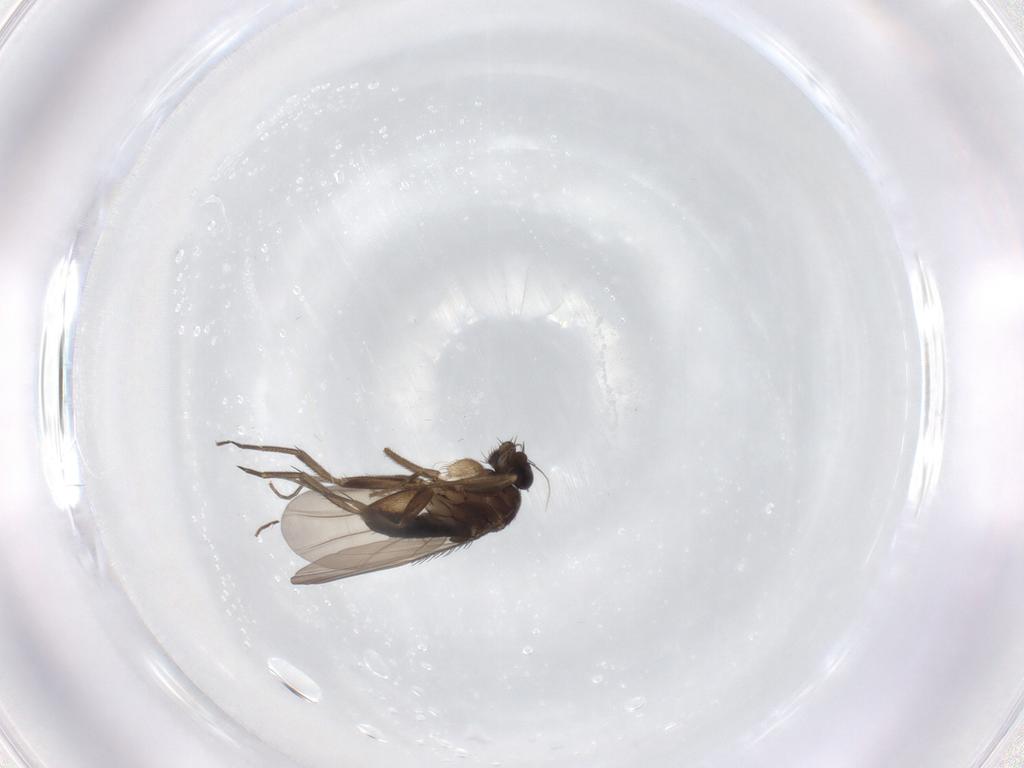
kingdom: Animalia
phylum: Arthropoda
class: Insecta
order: Diptera
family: Phoridae
